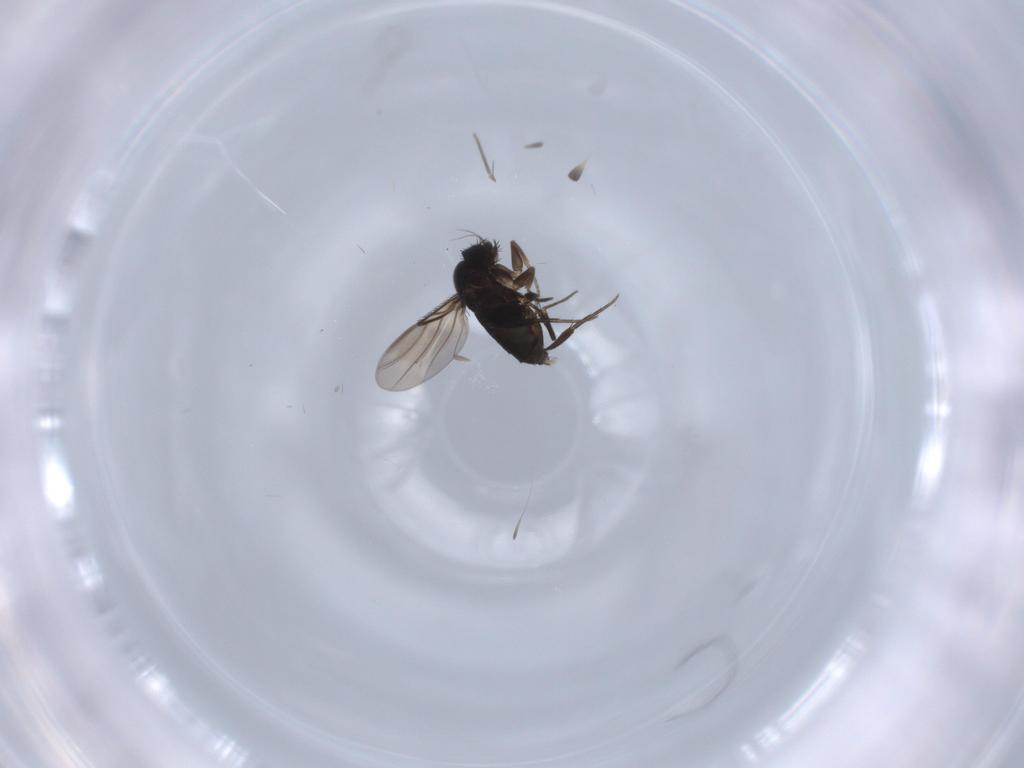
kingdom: Animalia
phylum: Arthropoda
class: Insecta
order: Diptera
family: Phoridae
